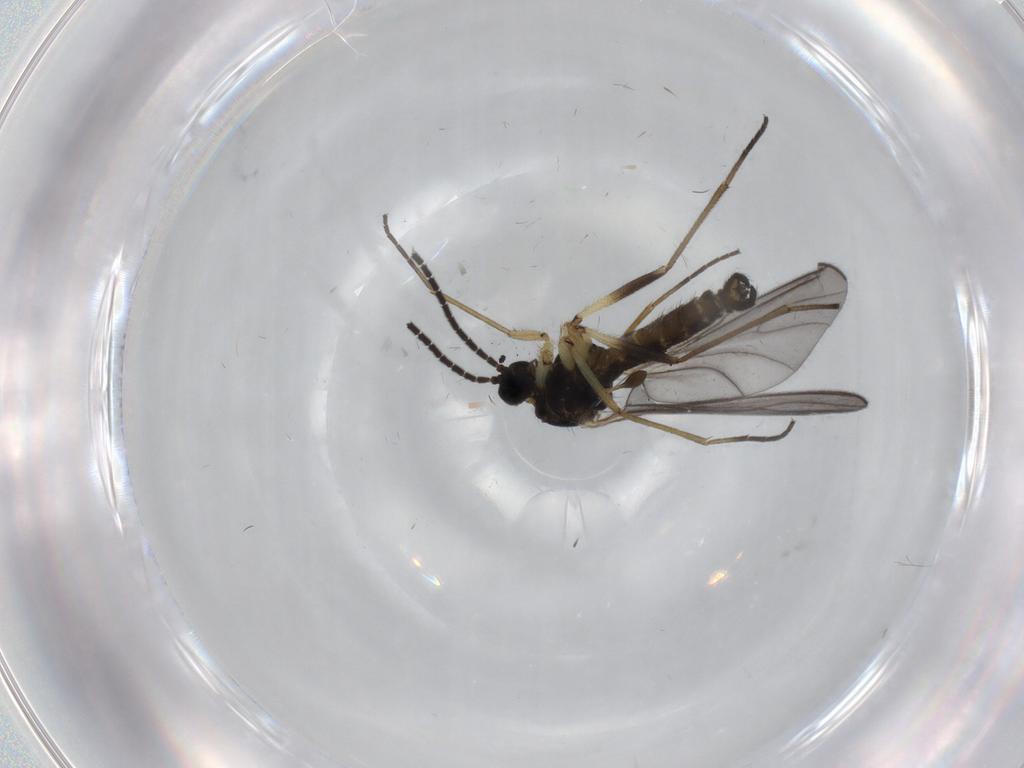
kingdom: Animalia
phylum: Arthropoda
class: Insecta
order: Diptera
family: Sciaridae
